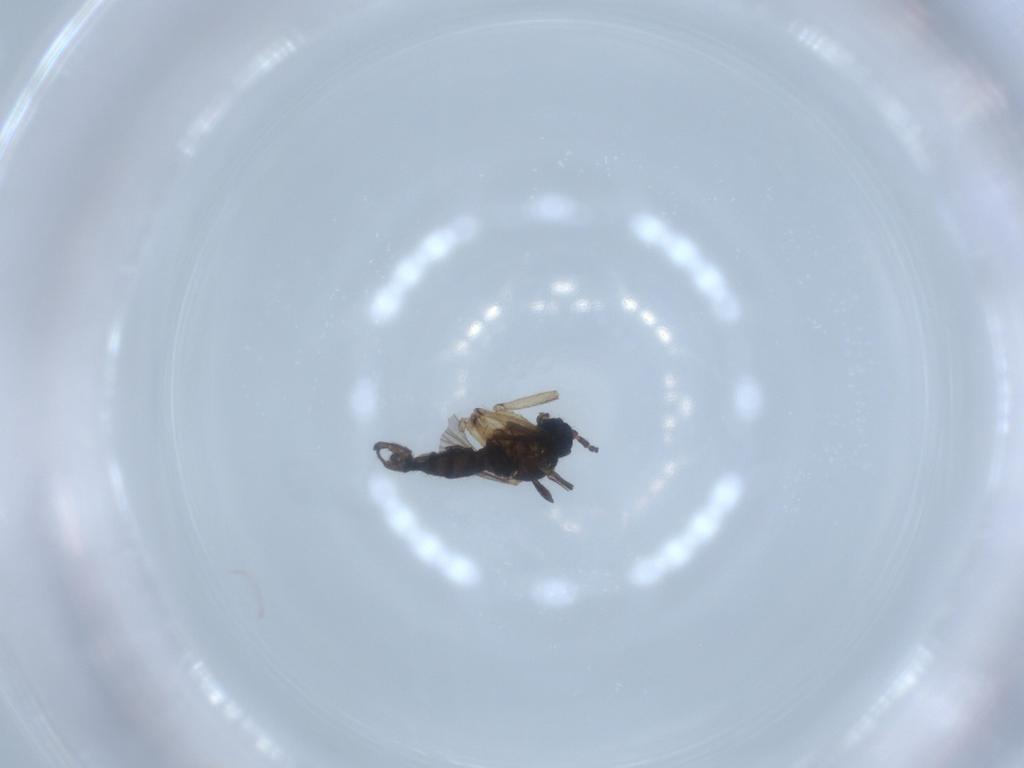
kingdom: Animalia
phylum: Arthropoda
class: Insecta
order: Diptera
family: Sciaridae
